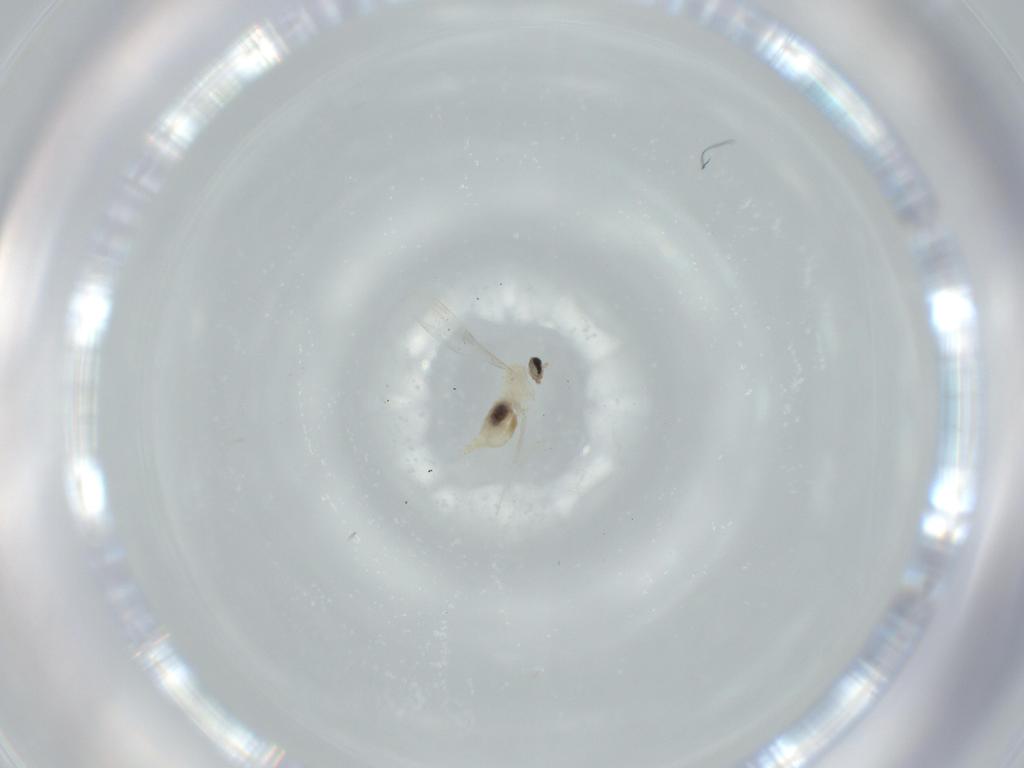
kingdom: Animalia
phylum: Arthropoda
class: Insecta
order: Diptera
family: Cecidomyiidae
